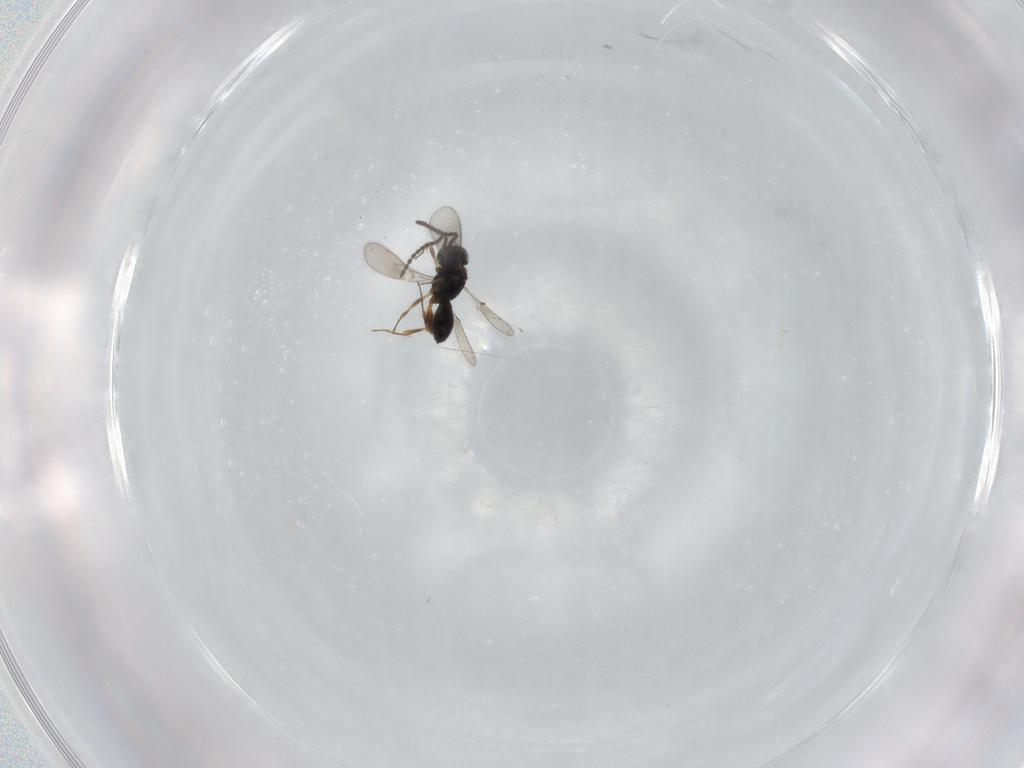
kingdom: Animalia
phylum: Arthropoda
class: Insecta
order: Hymenoptera
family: Scelionidae
